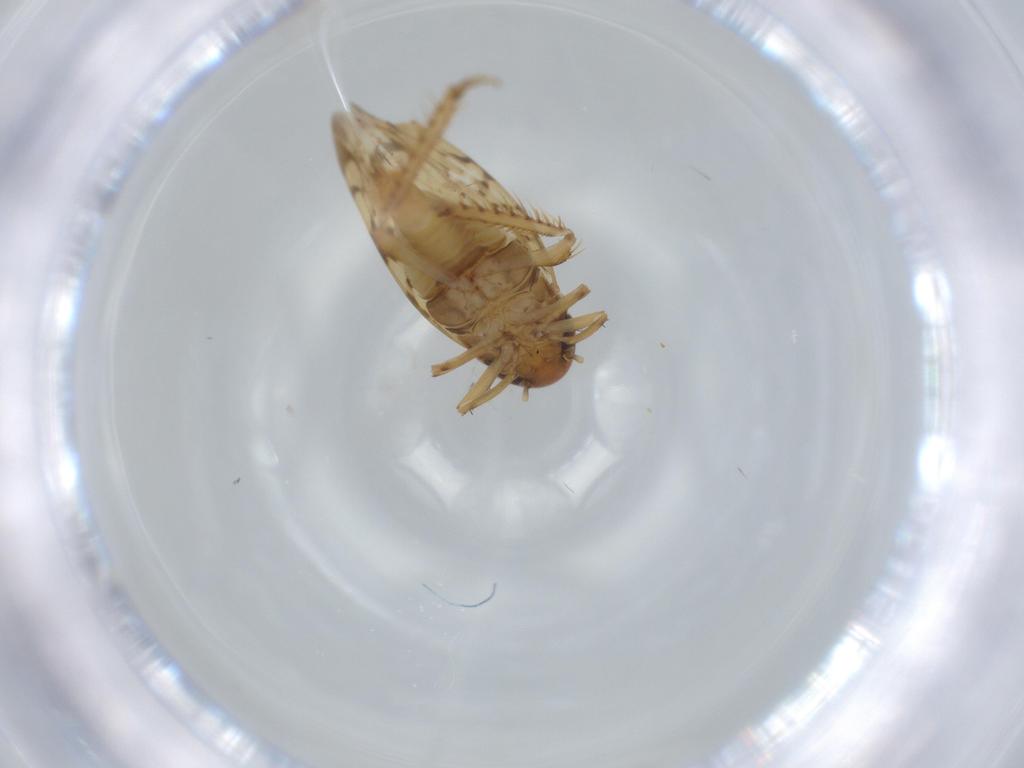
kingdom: Animalia
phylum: Arthropoda
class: Insecta
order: Hemiptera
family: Cicadellidae
